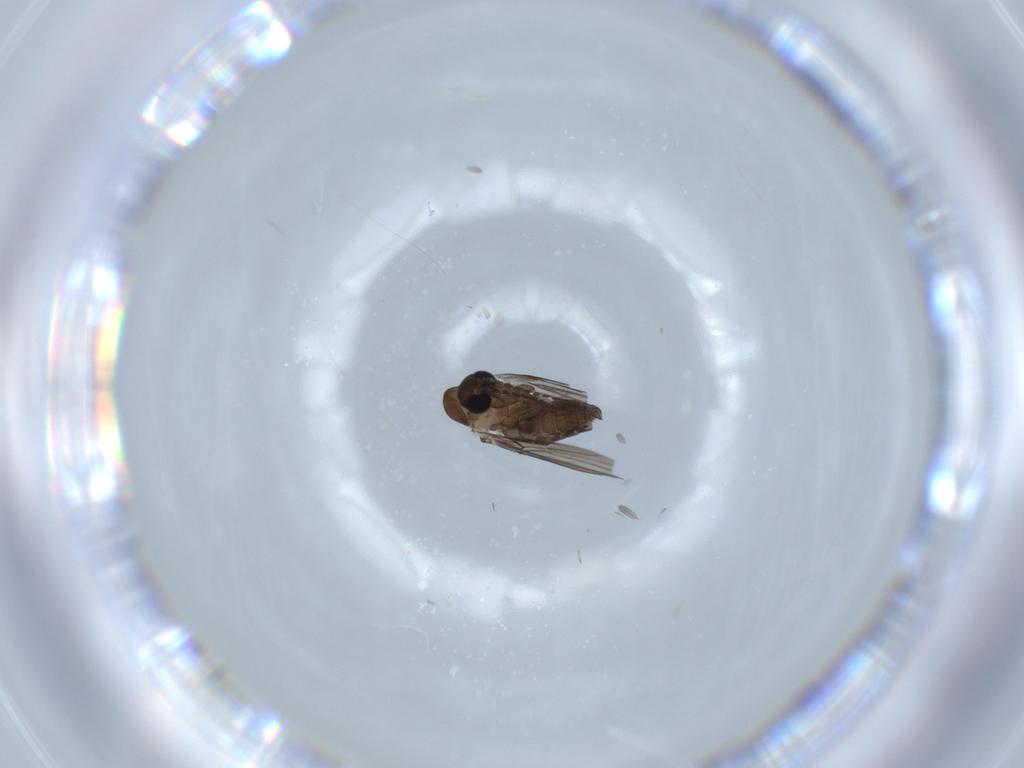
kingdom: Animalia
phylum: Arthropoda
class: Insecta
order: Diptera
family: Psychodidae
